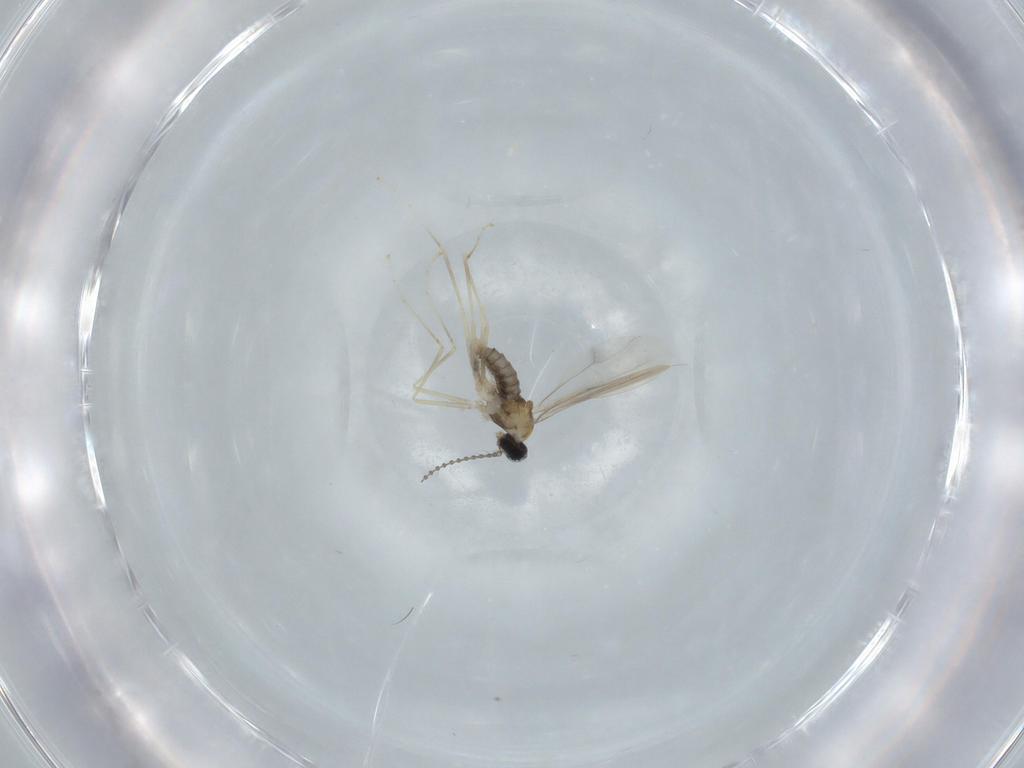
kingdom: Animalia
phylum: Arthropoda
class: Insecta
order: Diptera
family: Cecidomyiidae
